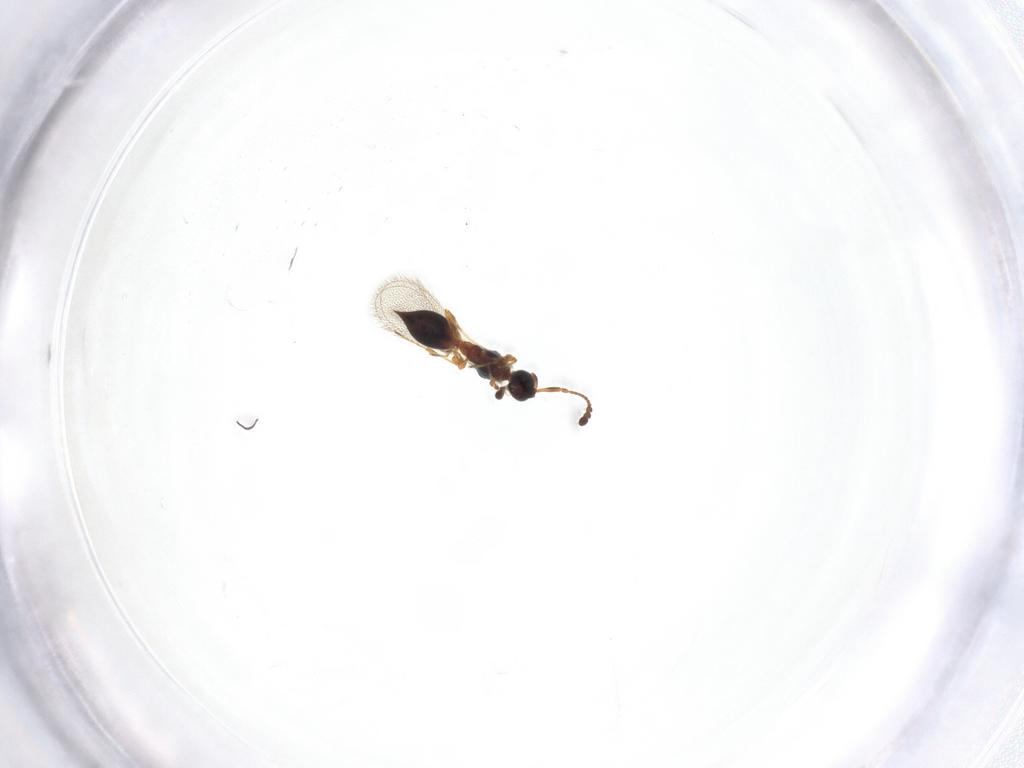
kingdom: Animalia
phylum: Arthropoda
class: Insecta
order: Hymenoptera
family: Diapriidae
